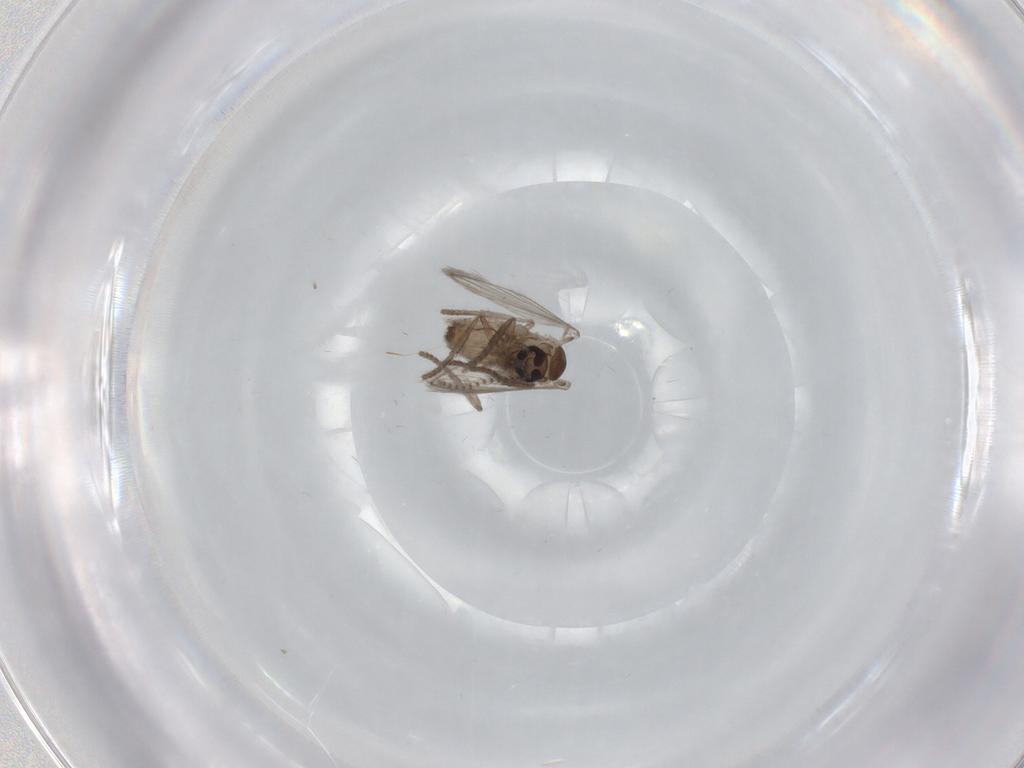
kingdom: Animalia
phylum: Arthropoda
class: Insecta
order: Diptera
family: Psychodidae
